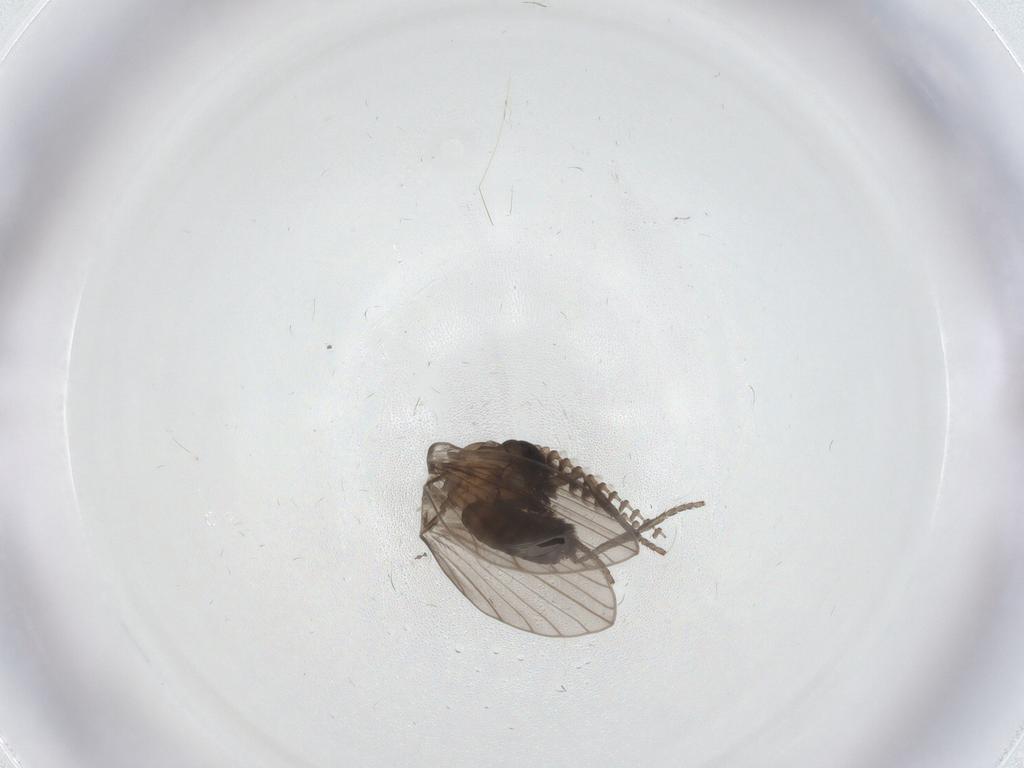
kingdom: Animalia
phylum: Arthropoda
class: Insecta
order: Diptera
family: Psychodidae
